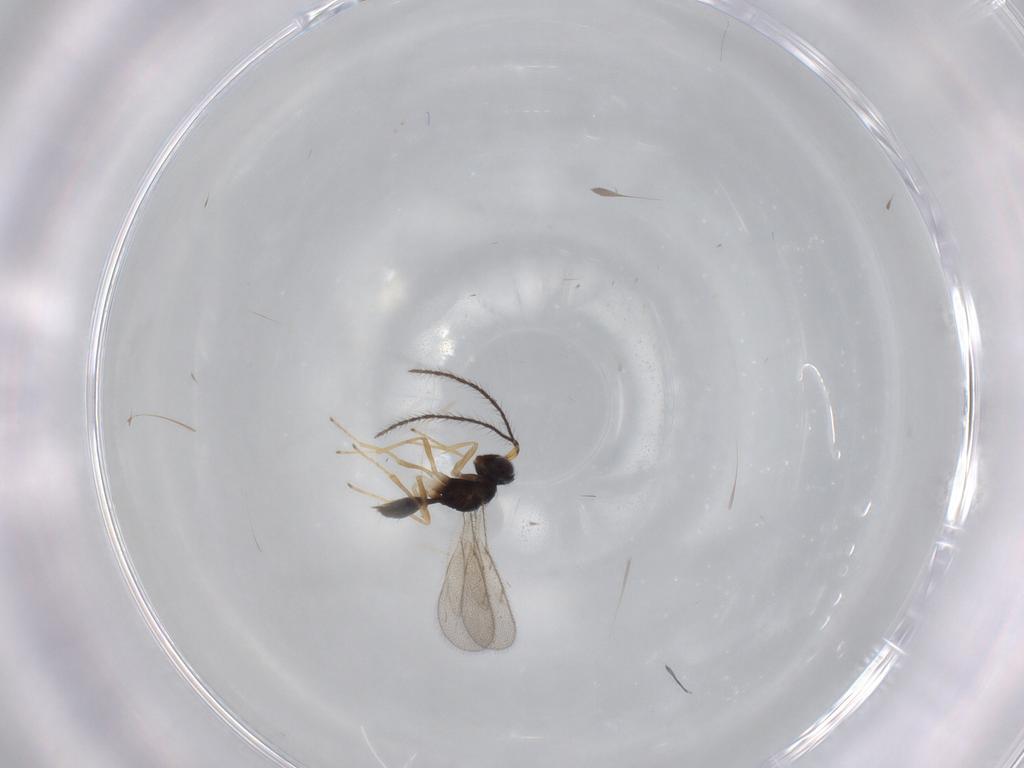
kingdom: Animalia
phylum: Arthropoda
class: Insecta
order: Hymenoptera
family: Diparidae
